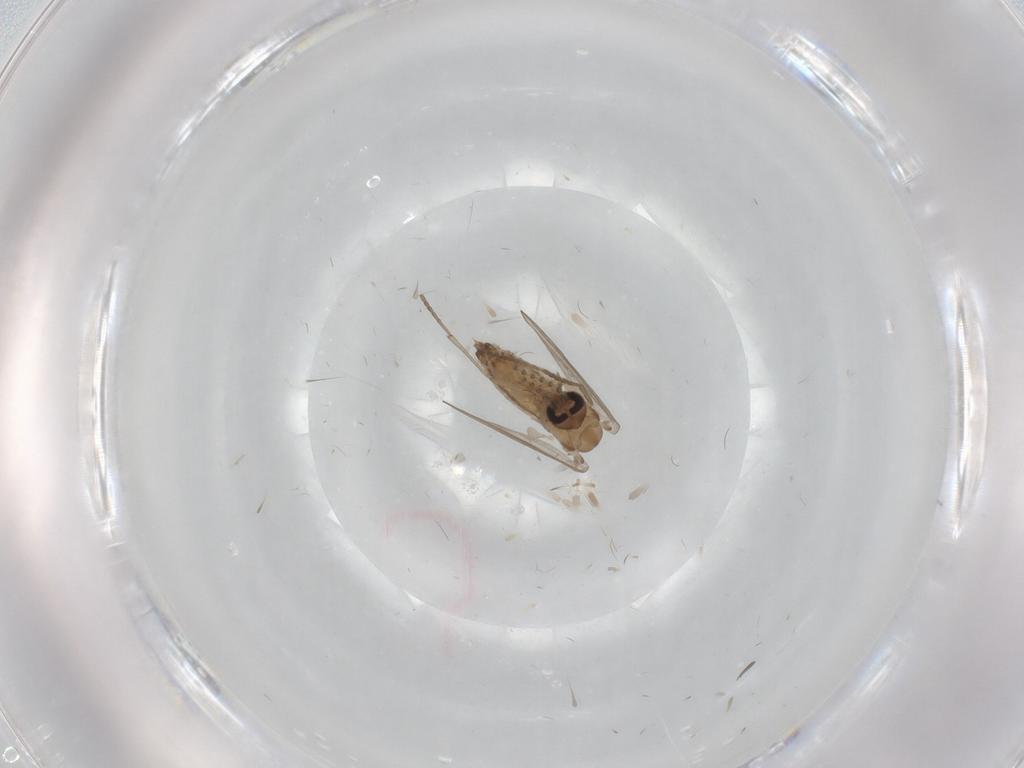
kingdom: Animalia
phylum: Arthropoda
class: Insecta
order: Diptera
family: Psychodidae
